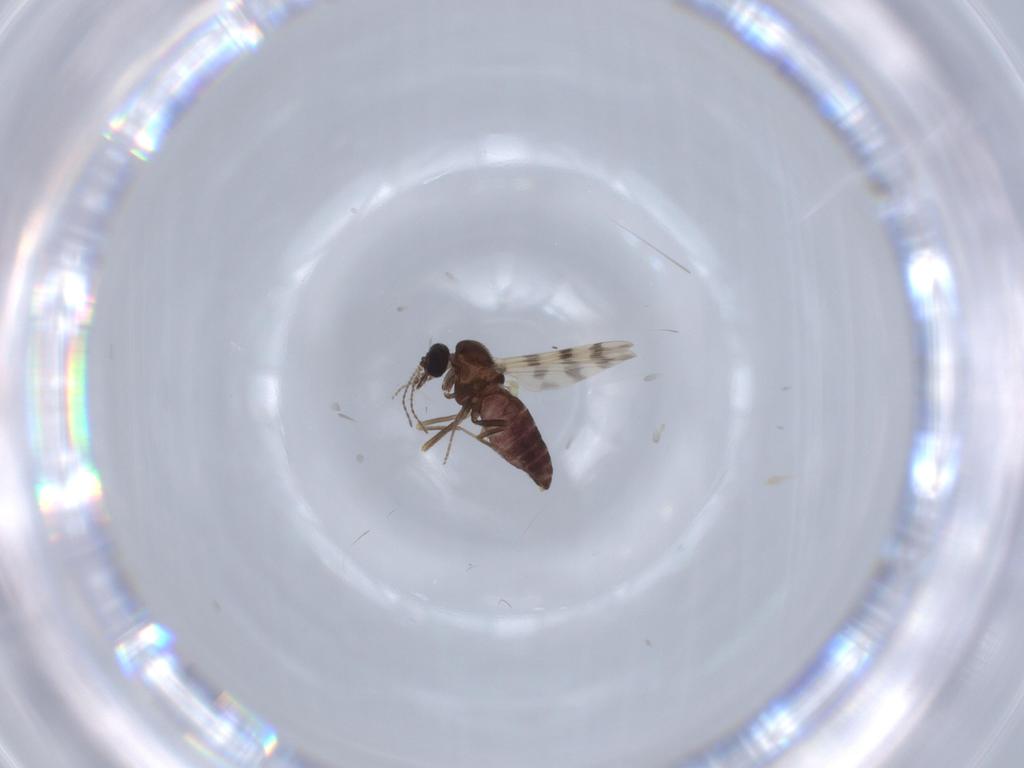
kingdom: Animalia
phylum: Arthropoda
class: Insecta
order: Diptera
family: Sciaridae
